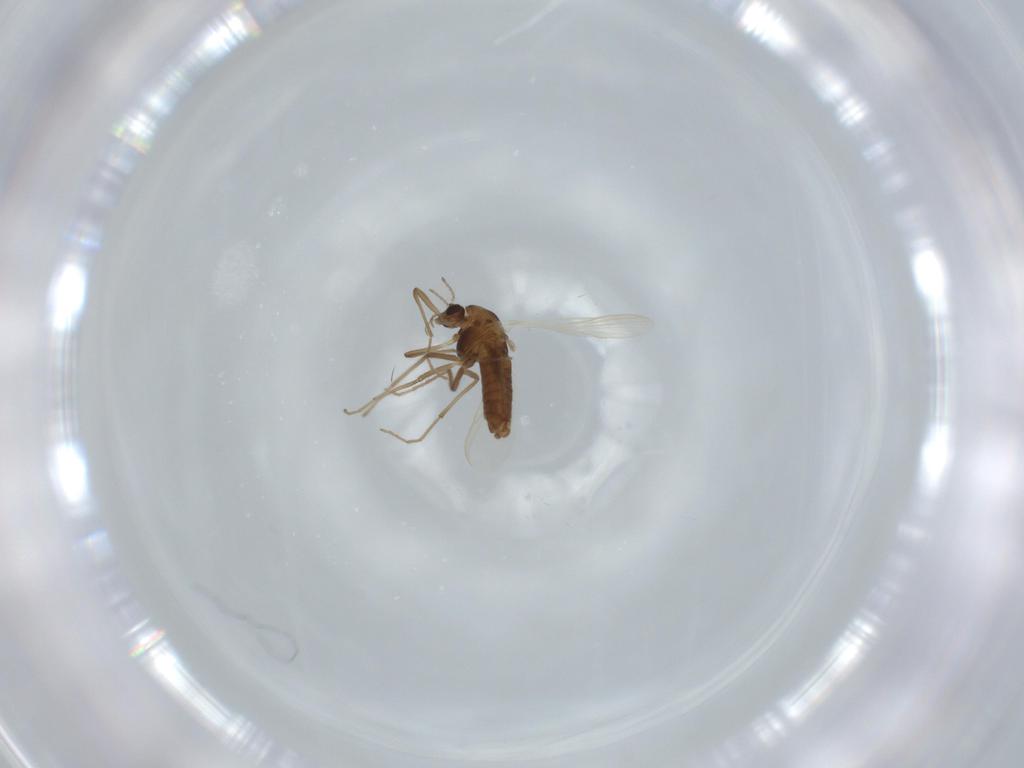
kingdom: Animalia
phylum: Arthropoda
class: Insecta
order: Diptera
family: Chironomidae
